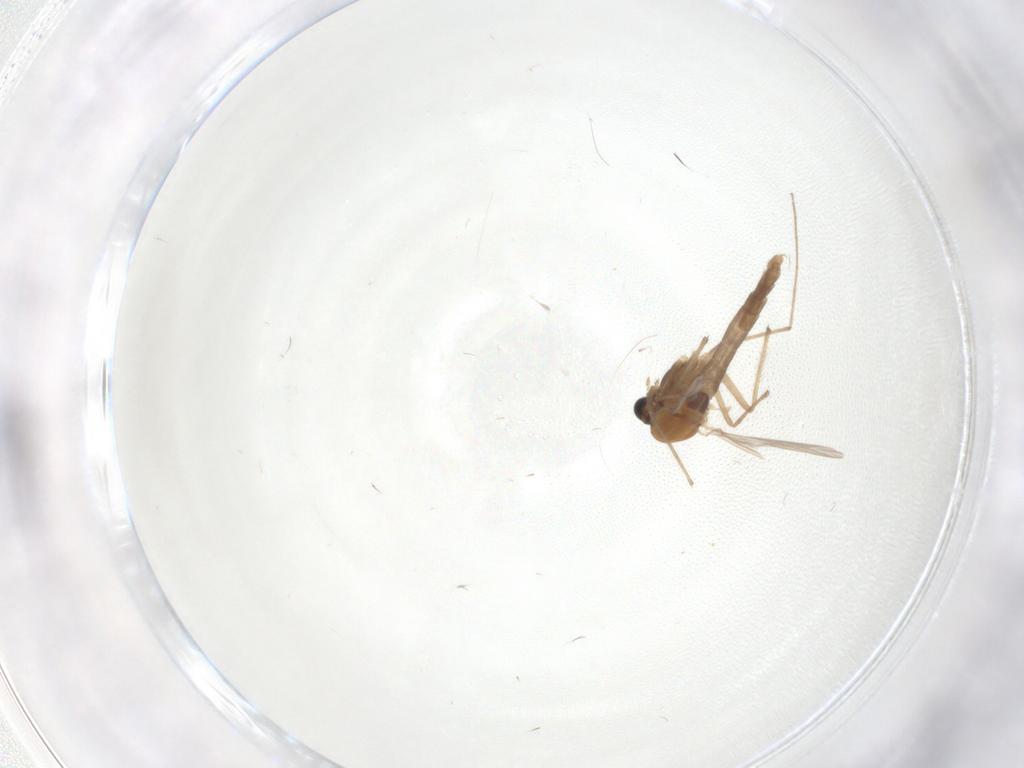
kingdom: Animalia
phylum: Arthropoda
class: Insecta
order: Diptera
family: Chironomidae
